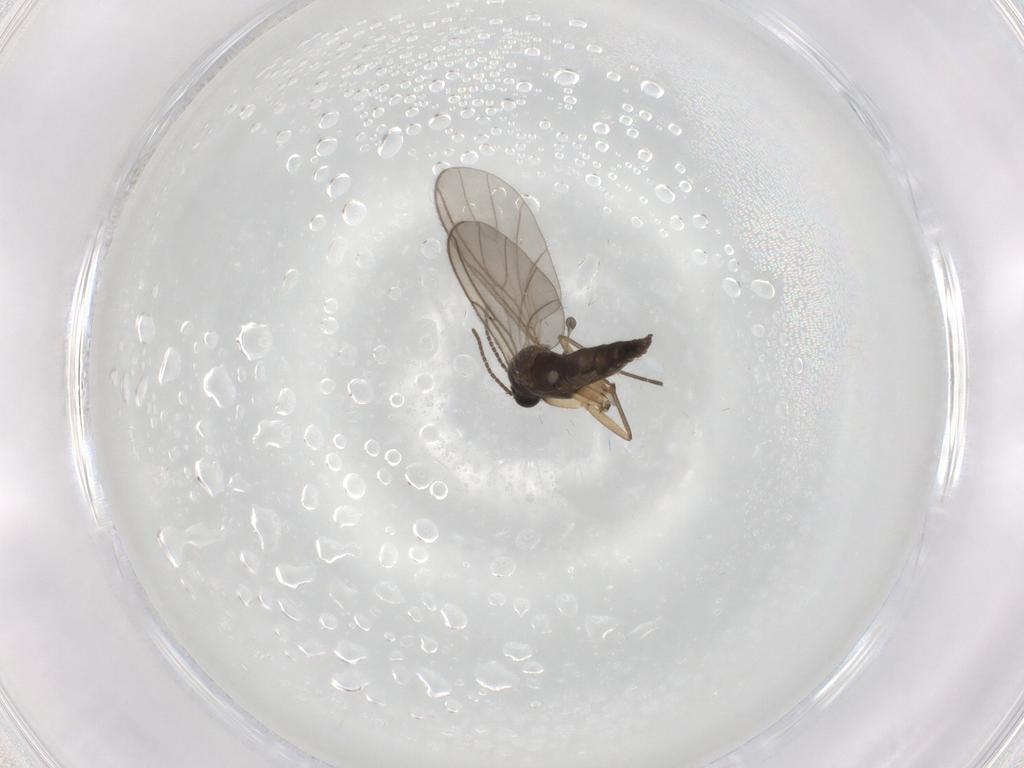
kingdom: Animalia
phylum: Arthropoda
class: Insecta
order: Diptera
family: Sciaridae
